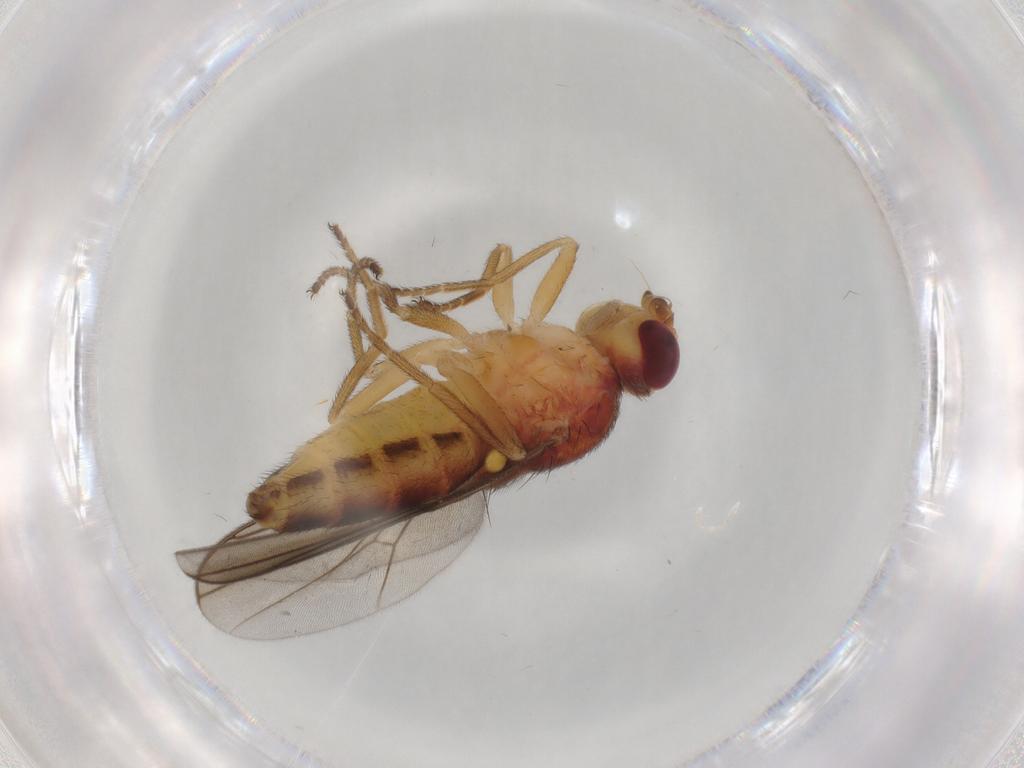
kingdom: Animalia
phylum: Arthropoda
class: Insecta
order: Diptera
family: Chloropidae
